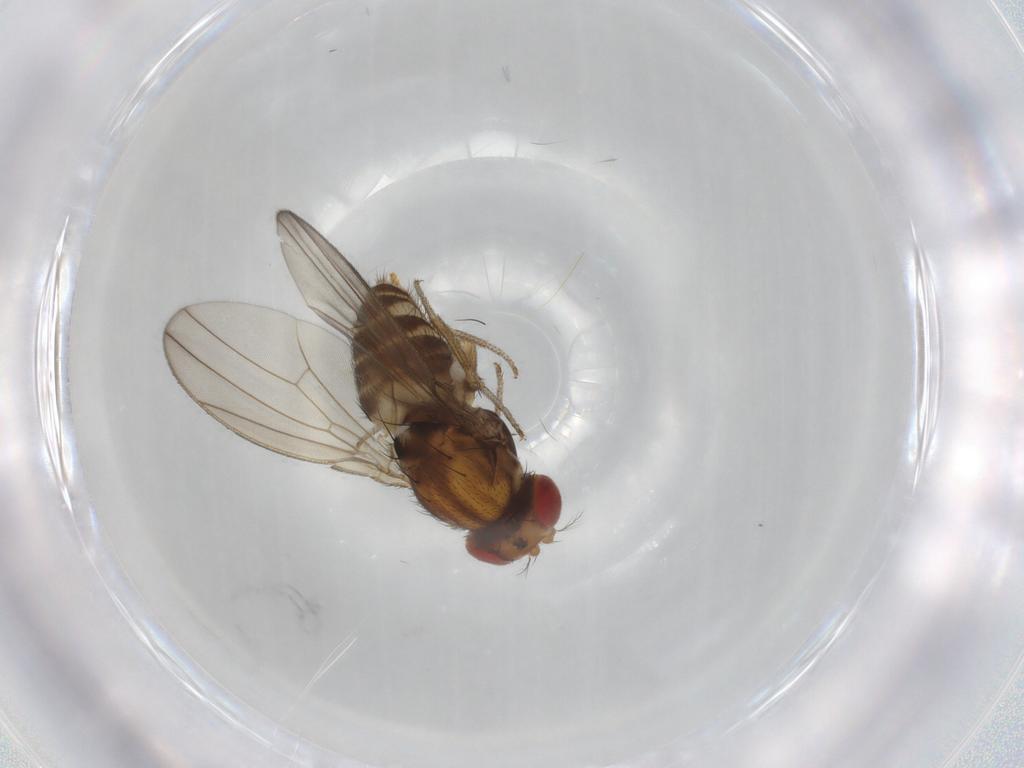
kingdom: Animalia
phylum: Arthropoda
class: Insecta
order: Diptera
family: Drosophilidae
